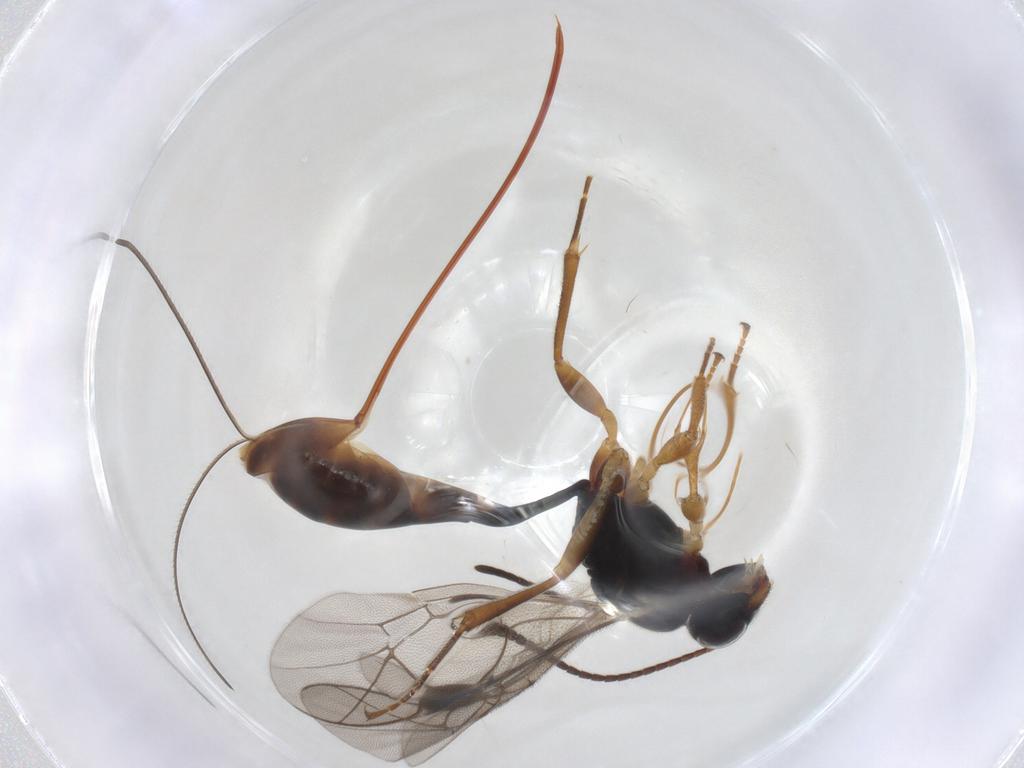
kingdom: Animalia
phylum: Arthropoda
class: Insecta
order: Hymenoptera
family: Ichneumonidae
